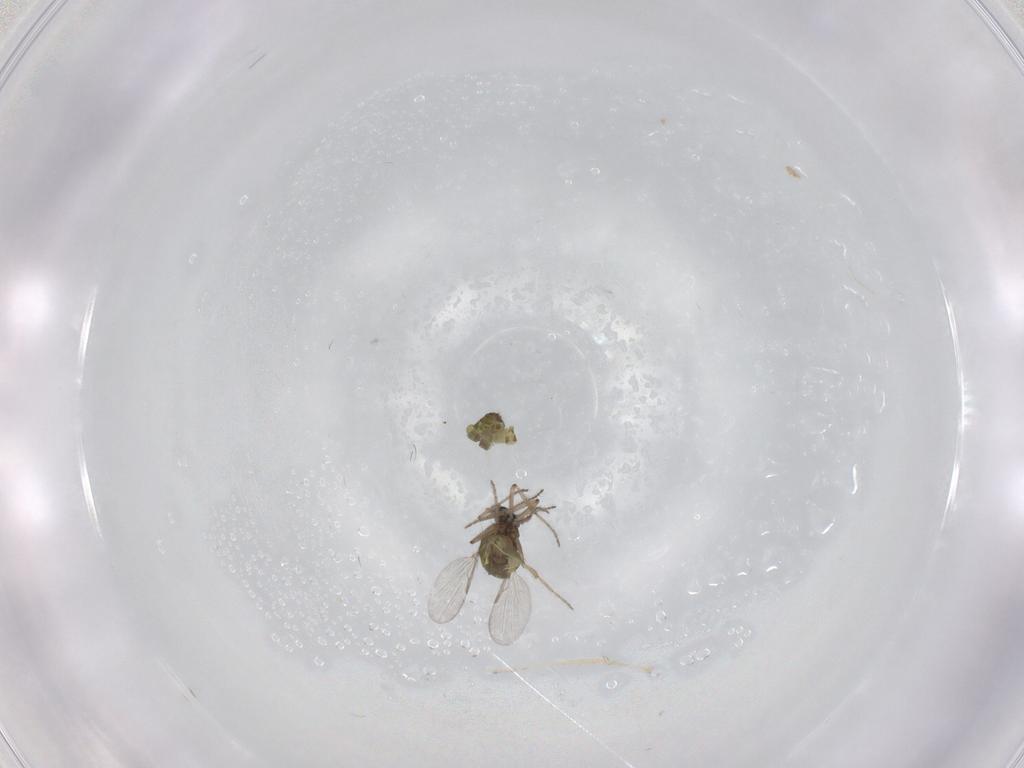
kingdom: Animalia
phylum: Arthropoda
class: Insecta
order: Diptera
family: Ceratopogonidae
